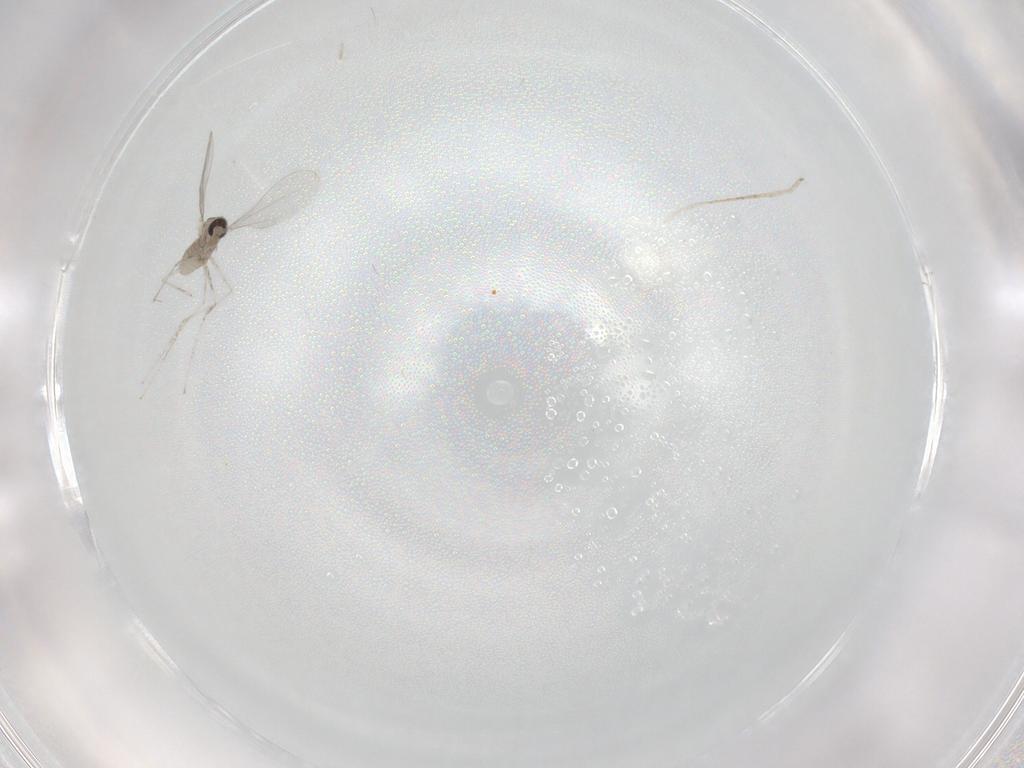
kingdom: Animalia
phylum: Arthropoda
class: Insecta
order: Diptera
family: Cecidomyiidae
